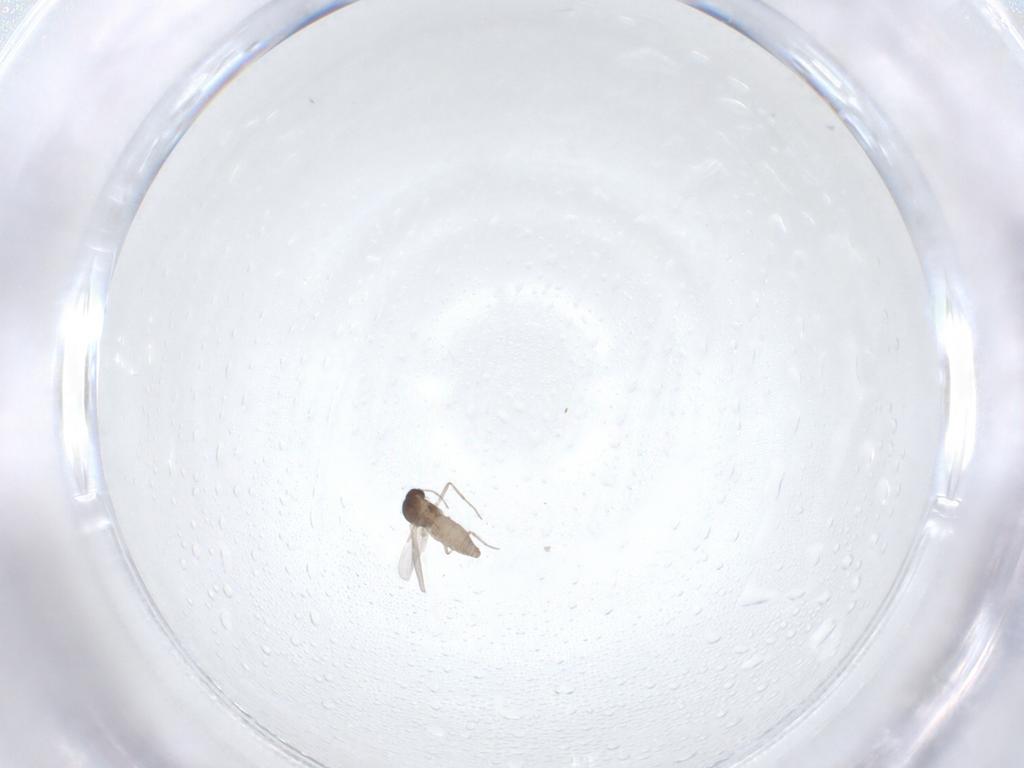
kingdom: Animalia
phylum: Arthropoda
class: Insecta
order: Diptera
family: Ceratopogonidae
